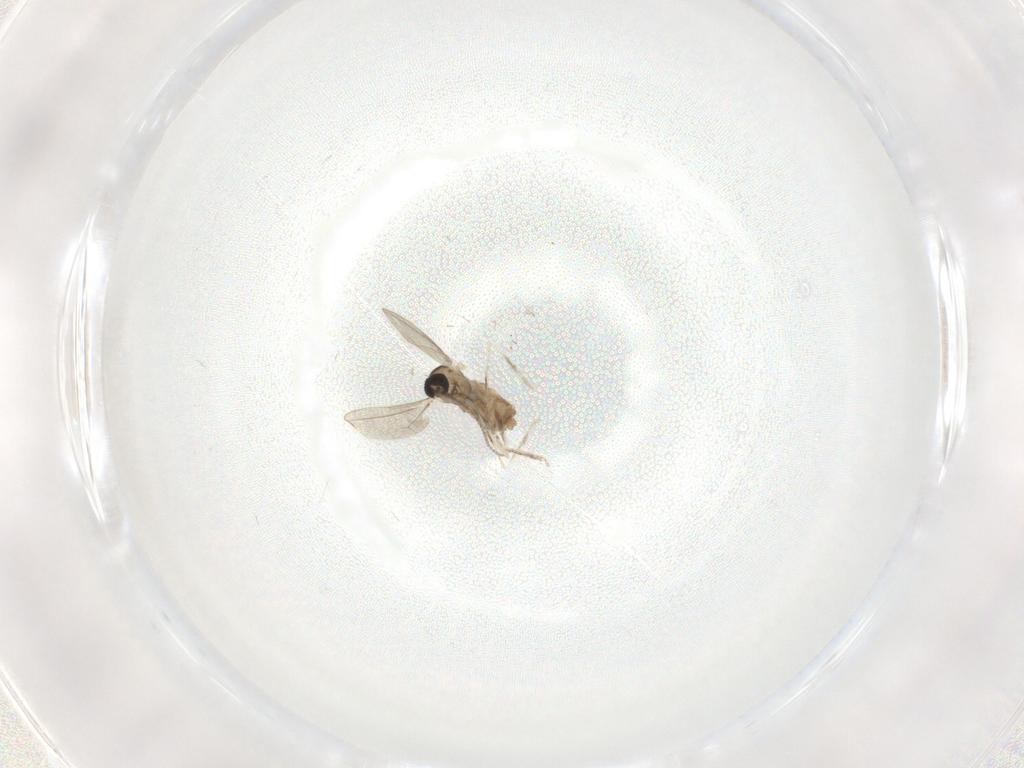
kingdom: Animalia
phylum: Arthropoda
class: Insecta
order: Diptera
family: Cecidomyiidae
